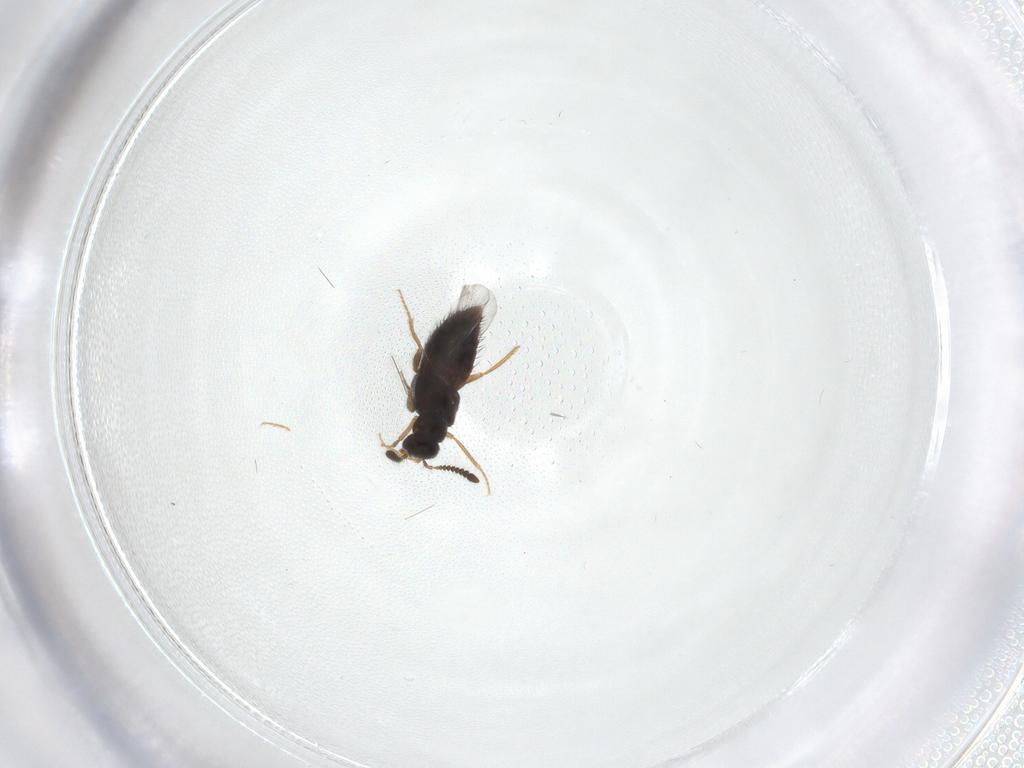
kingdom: Animalia
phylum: Arthropoda
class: Insecta
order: Coleoptera
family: Staphylinidae
